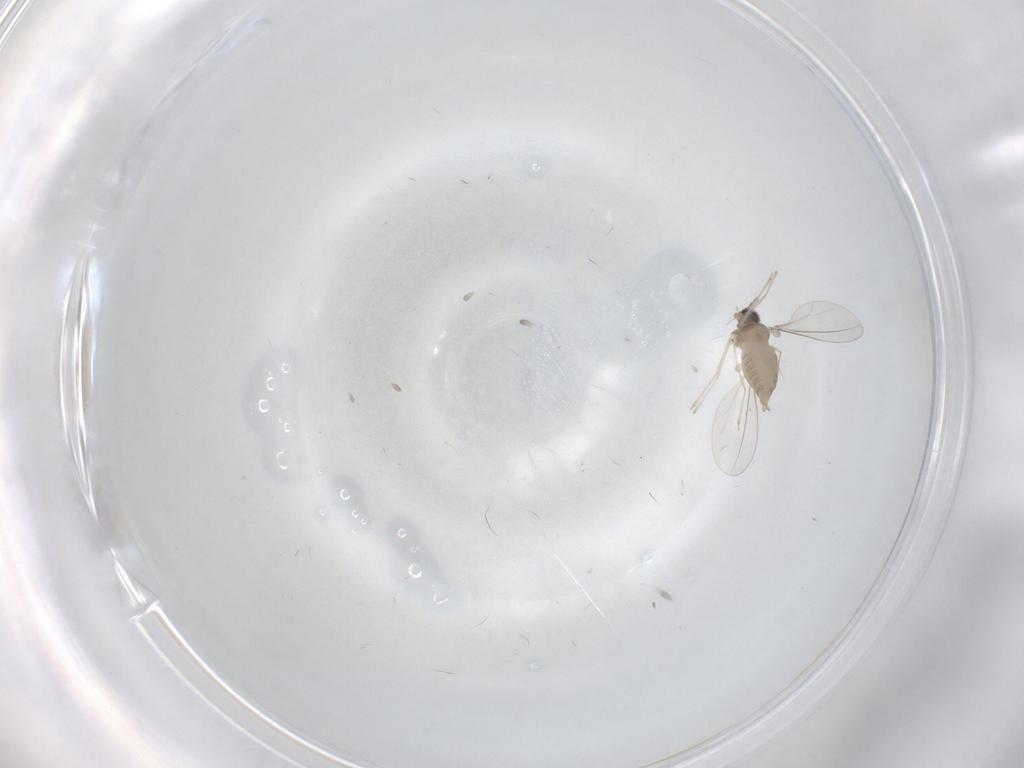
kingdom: Animalia
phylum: Arthropoda
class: Insecta
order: Diptera
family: Cecidomyiidae
